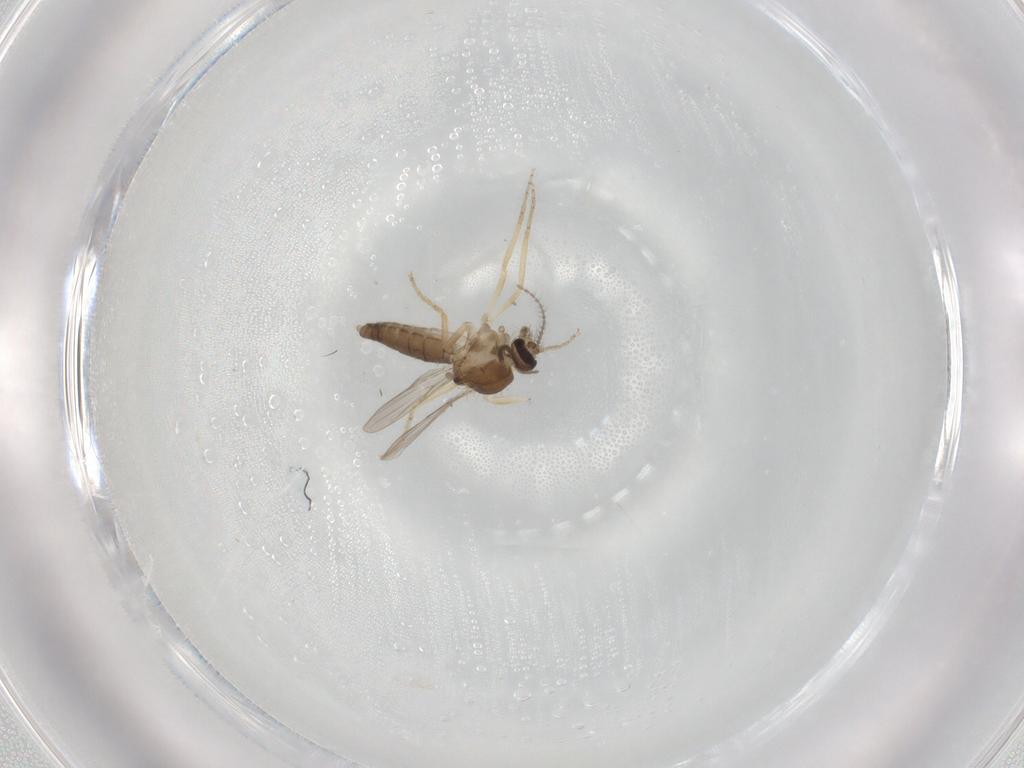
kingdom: Animalia
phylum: Arthropoda
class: Insecta
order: Diptera
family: Ceratopogonidae
